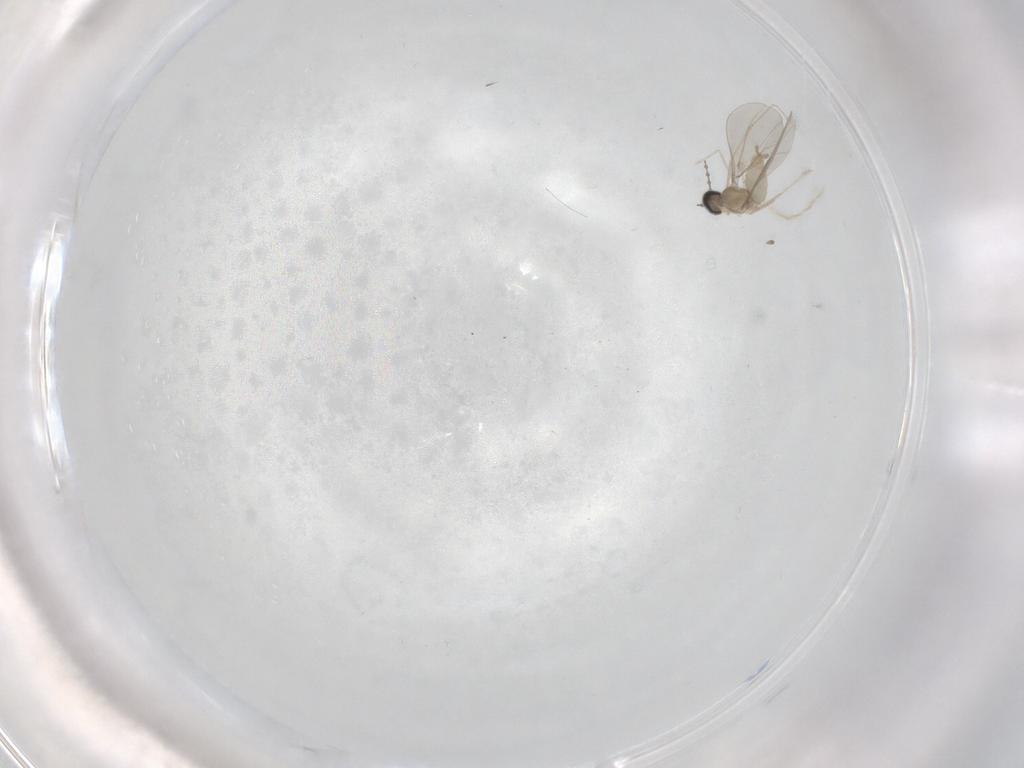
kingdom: Animalia
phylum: Arthropoda
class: Insecta
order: Diptera
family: Cecidomyiidae
